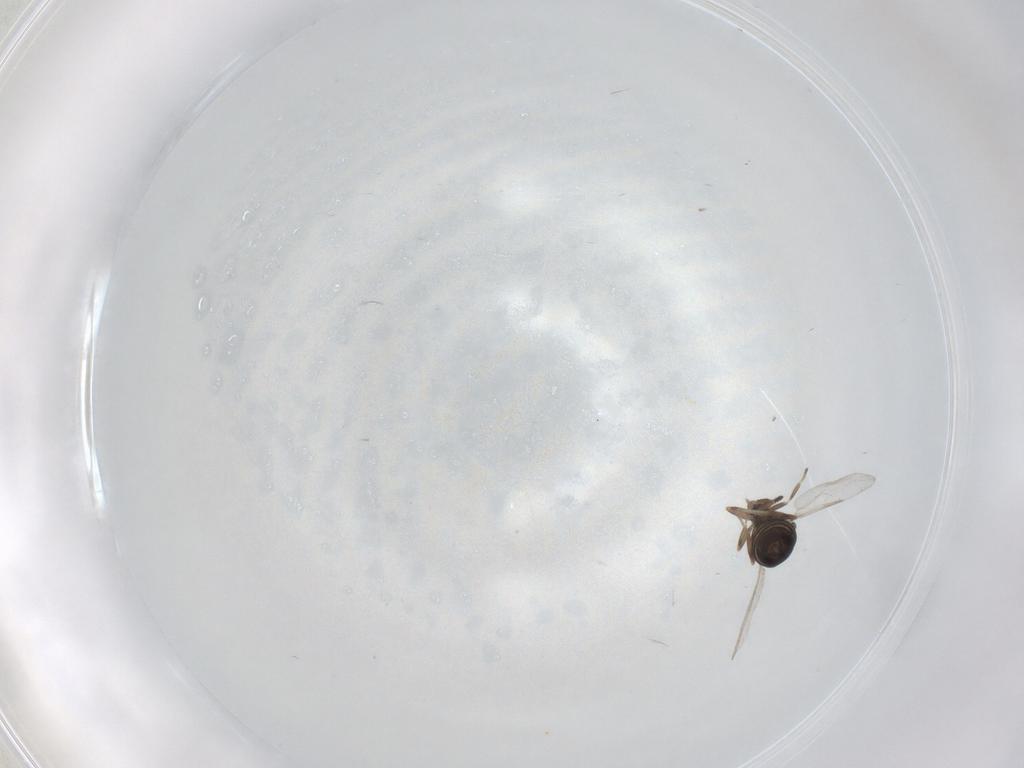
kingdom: Animalia
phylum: Arthropoda
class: Insecta
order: Diptera
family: Scatopsidae
